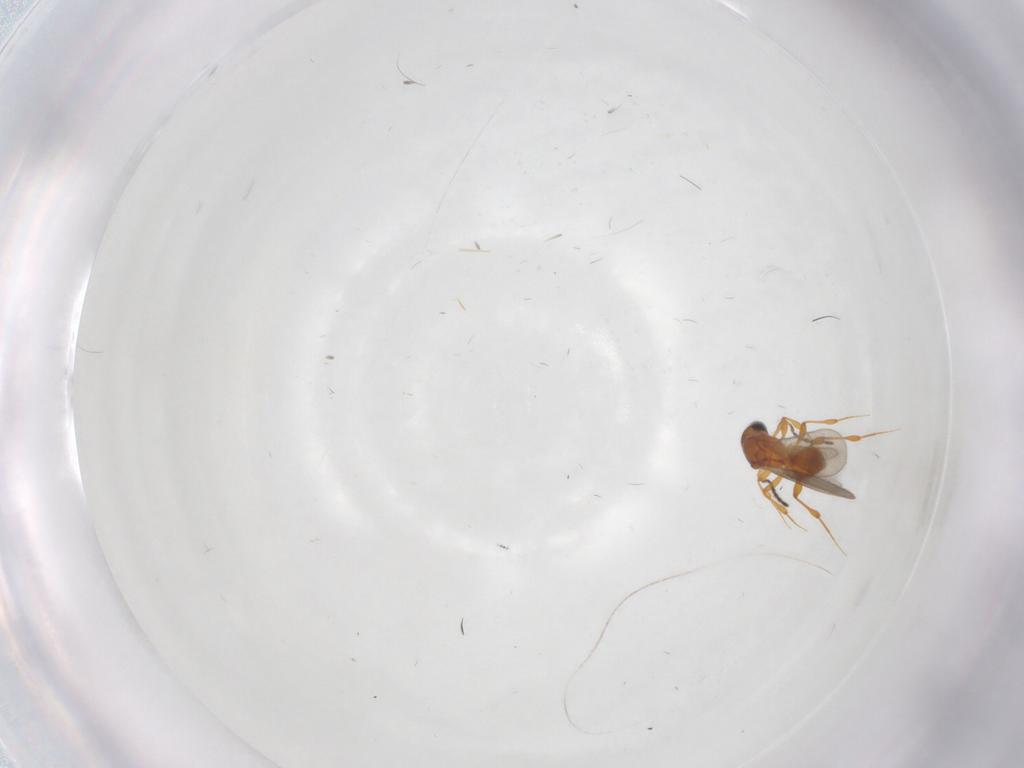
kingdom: Animalia
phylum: Arthropoda
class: Insecta
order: Hymenoptera
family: Platygastridae
